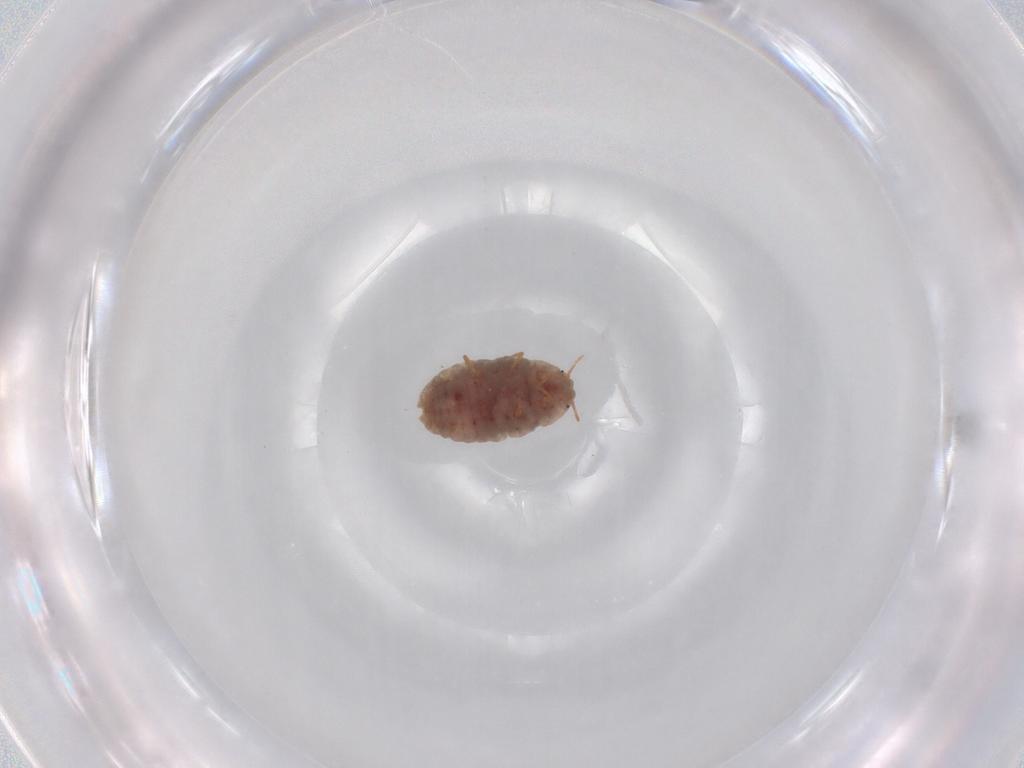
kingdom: Animalia
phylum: Arthropoda
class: Insecta
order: Hemiptera
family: Ortheziidae
